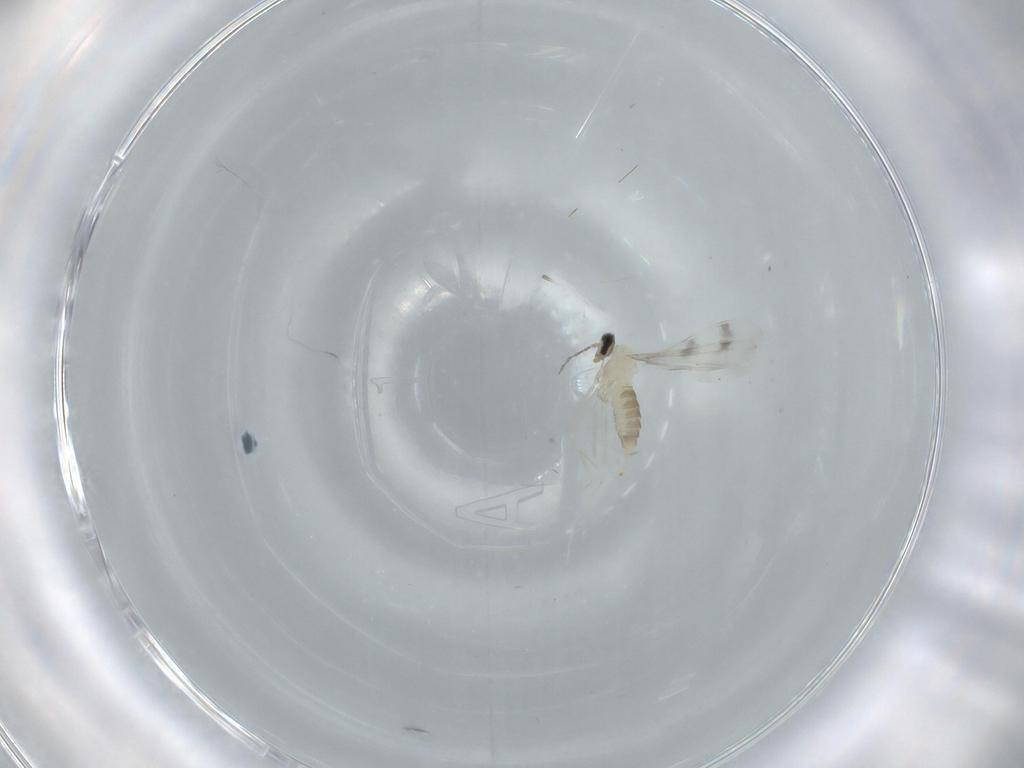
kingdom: Animalia
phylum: Arthropoda
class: Insecta
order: Diptera
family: Cecidomyiidae
